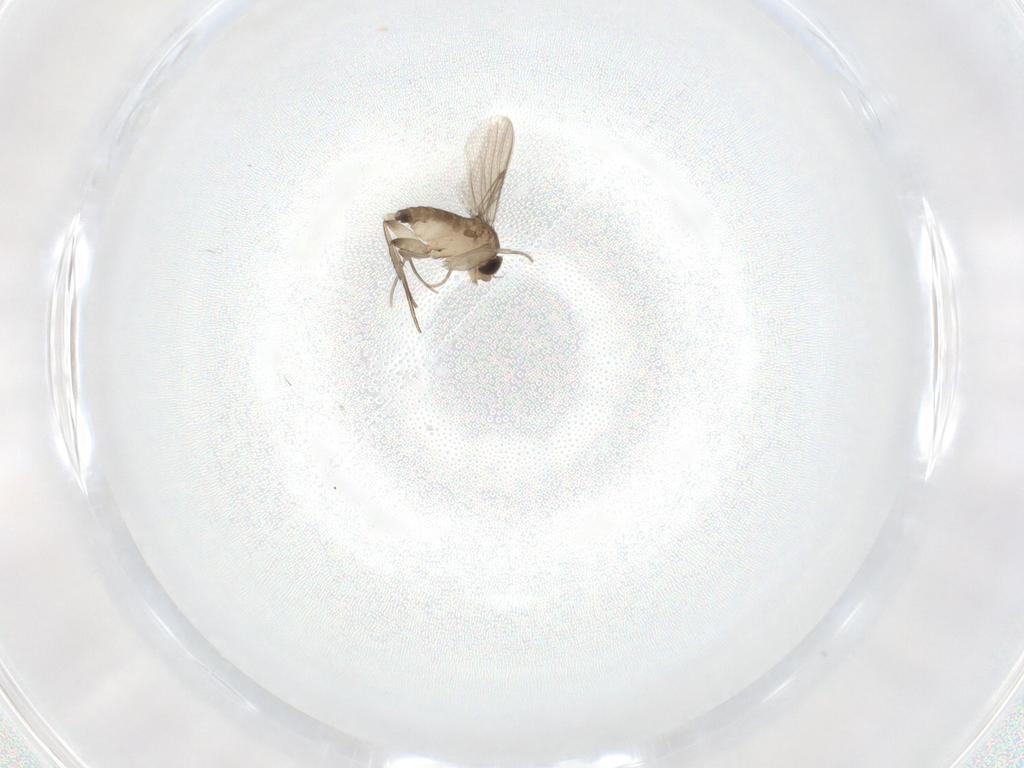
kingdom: Animalia
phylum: Arthropoda
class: Insecta
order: Diptera
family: Phoridae
